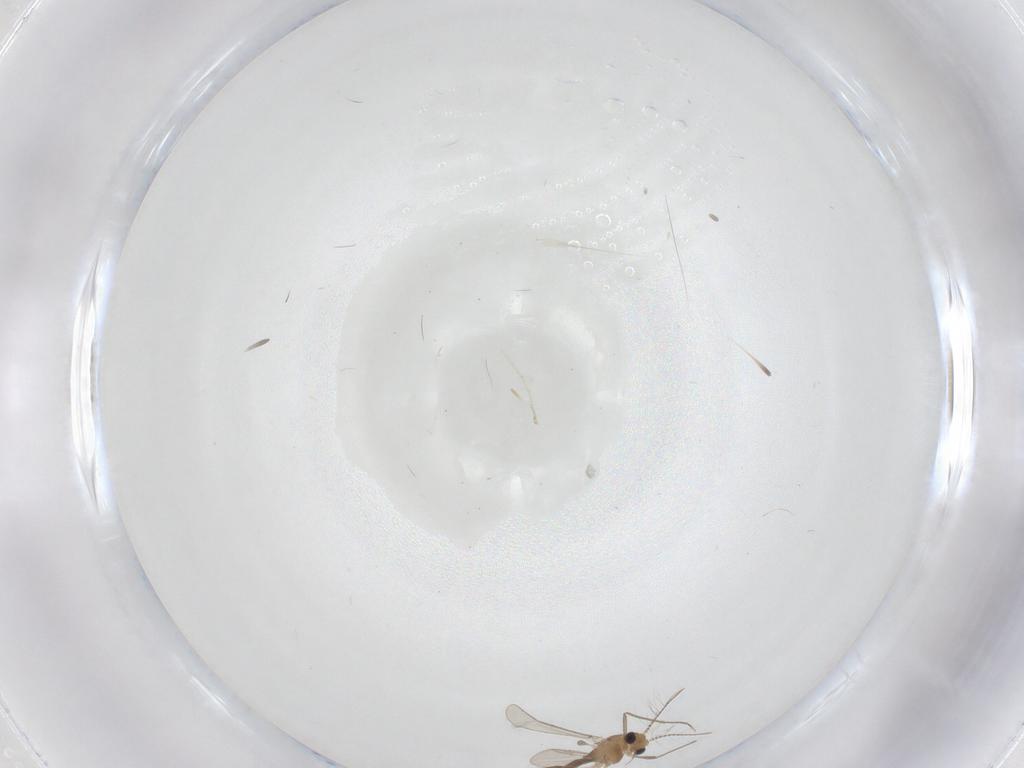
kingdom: Animalia
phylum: Arthropoda
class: Insecta
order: Diptera
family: Chironomidae
